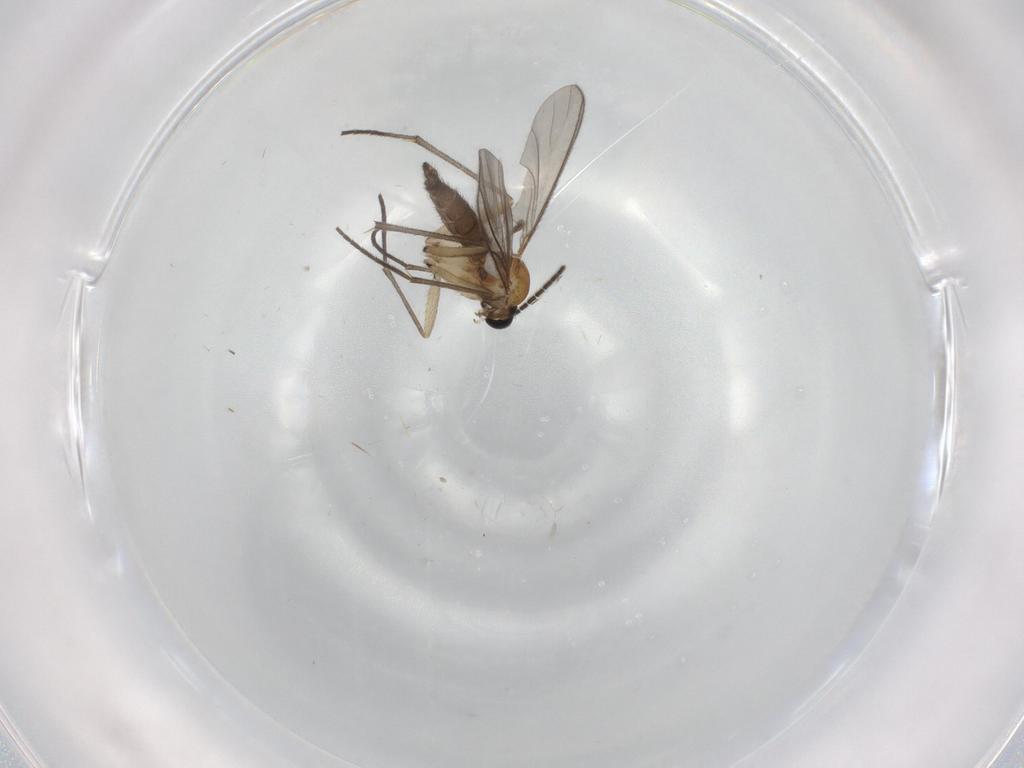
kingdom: Animalia
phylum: Arthropoda
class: Insecta
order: Diptera
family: Sciaridae
